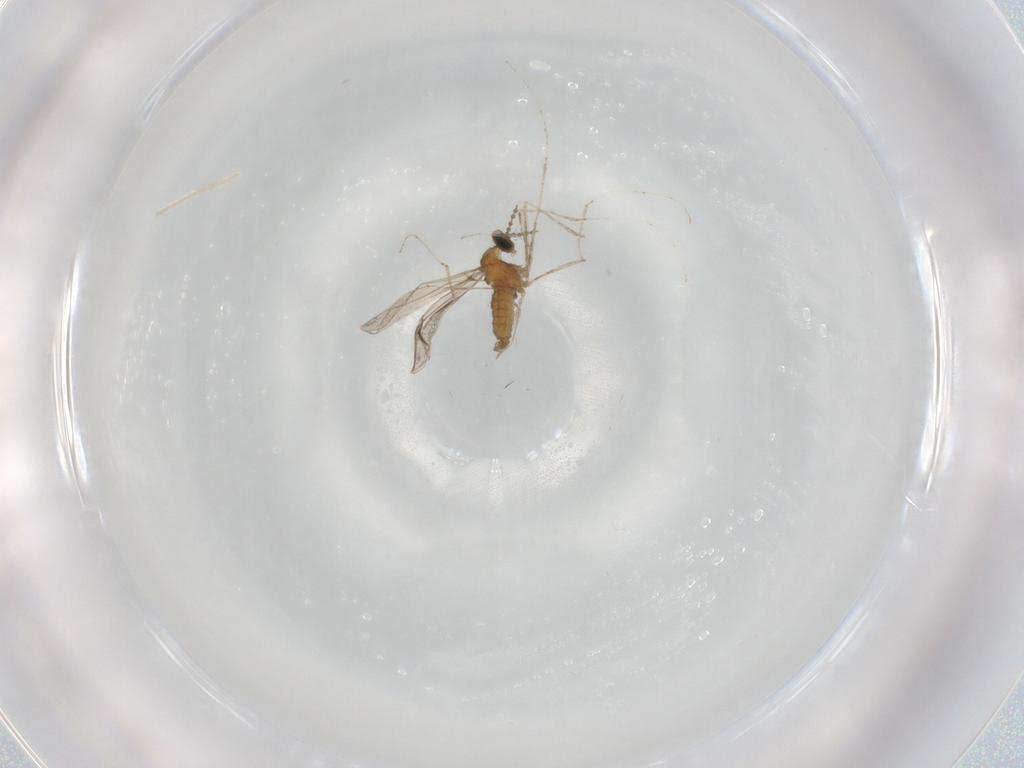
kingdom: Animalia
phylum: Arthropoda
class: Insecta
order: Diptera
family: Cecidomyiidae
